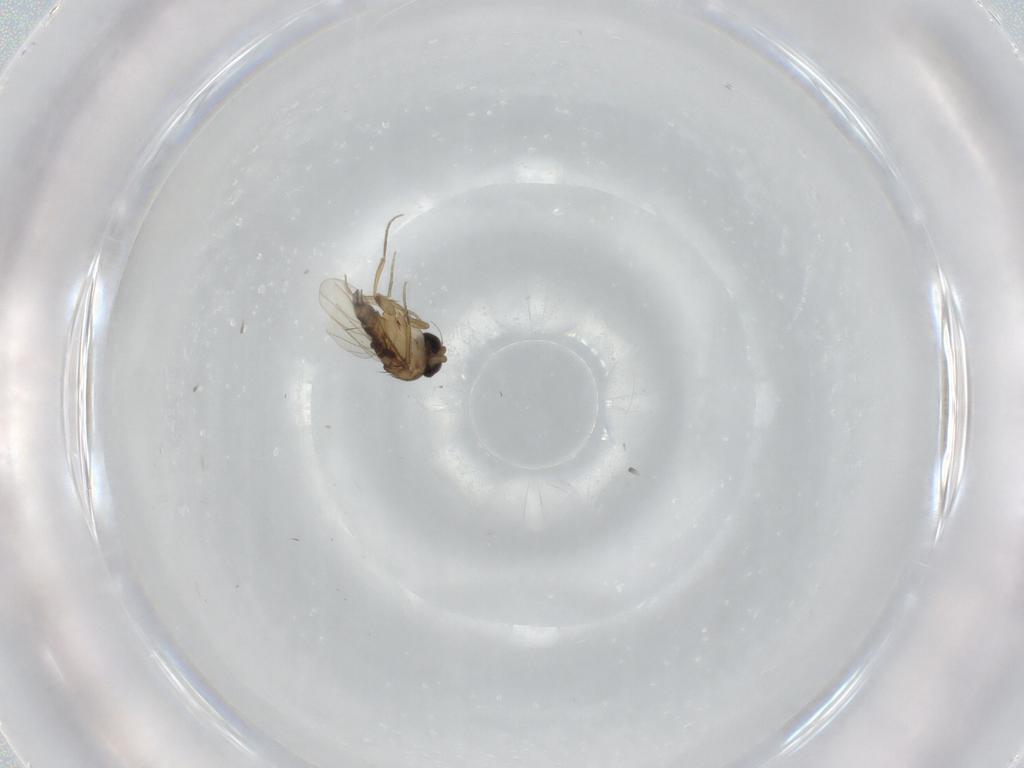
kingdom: Animalia
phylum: Arthropoda
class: Insecta
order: Diptera
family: Phoridae
